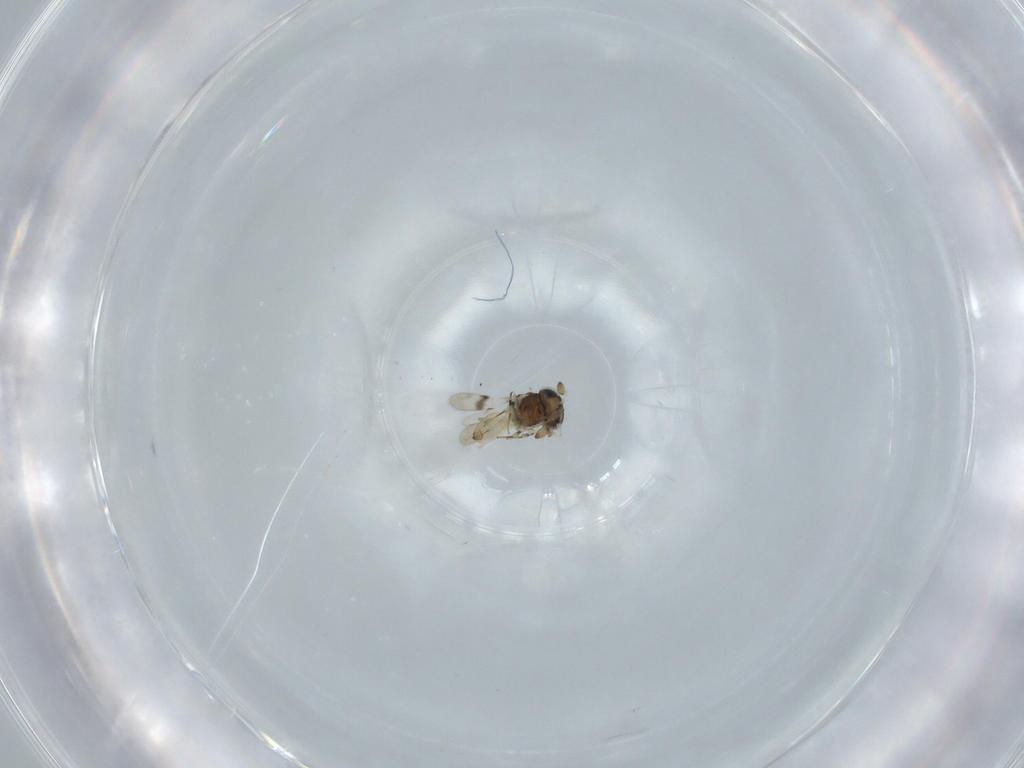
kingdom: Animalia
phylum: Arthropoda
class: Insecta
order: Hymenoptera
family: Scelionidae
